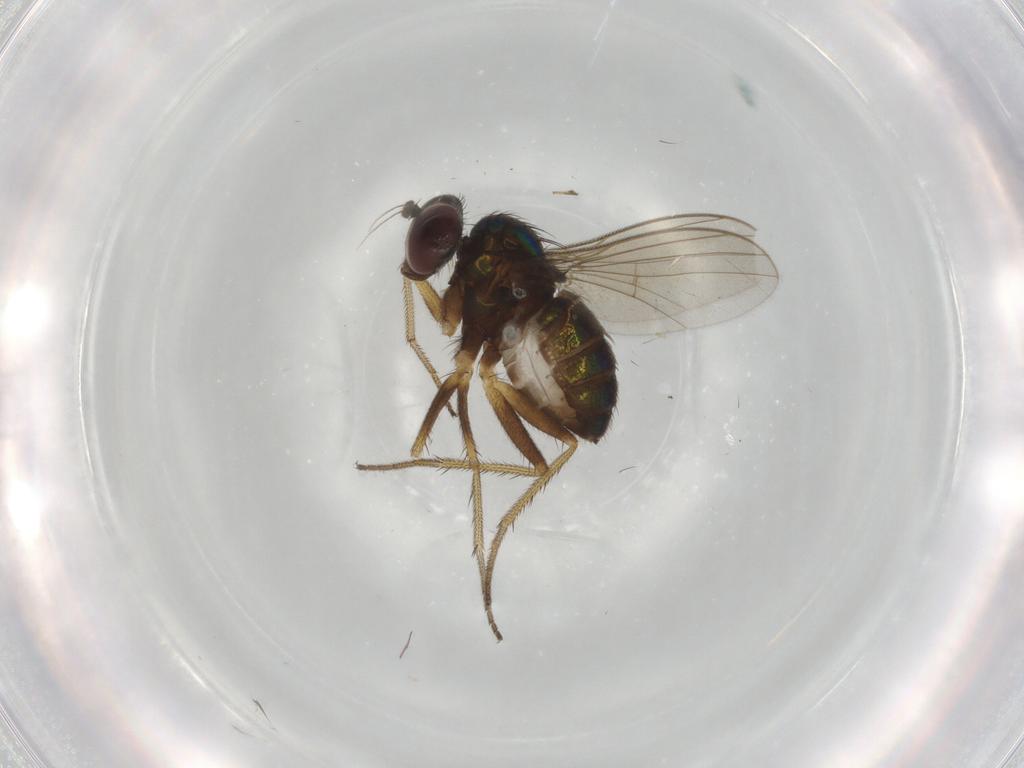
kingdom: Animalia
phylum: Arthropoda
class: Insecta
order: Diptera
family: Dolichopodidae
